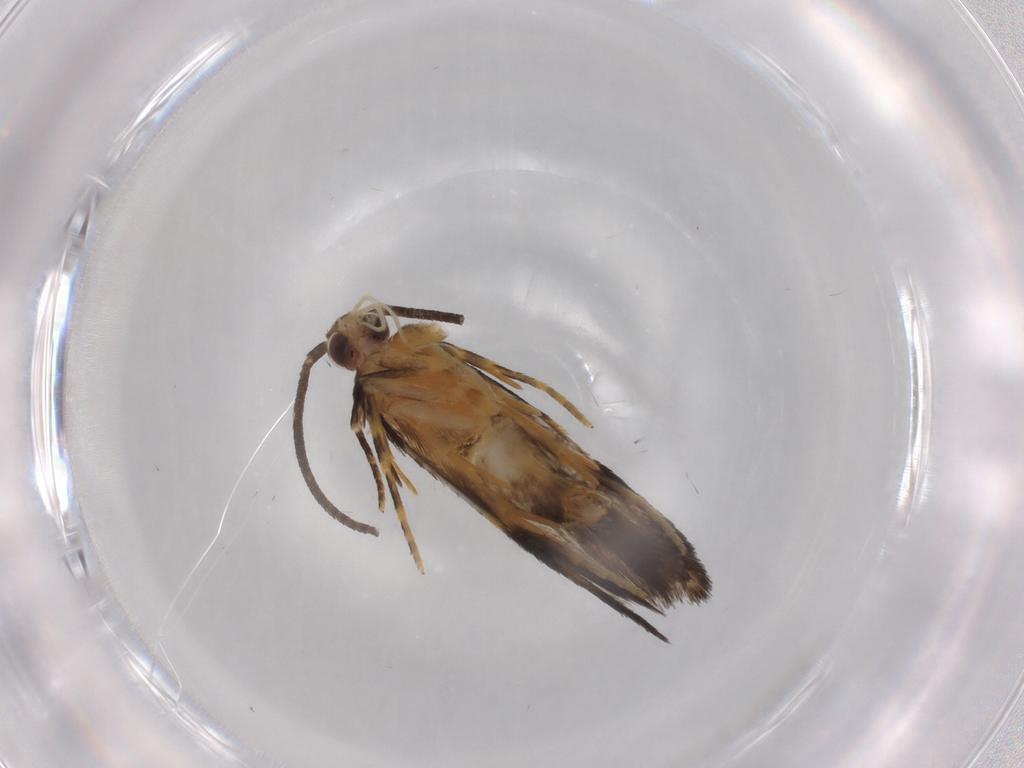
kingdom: Animalia
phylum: Arthropoda
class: Insecta
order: Lepidoptera
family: Autostichidae
